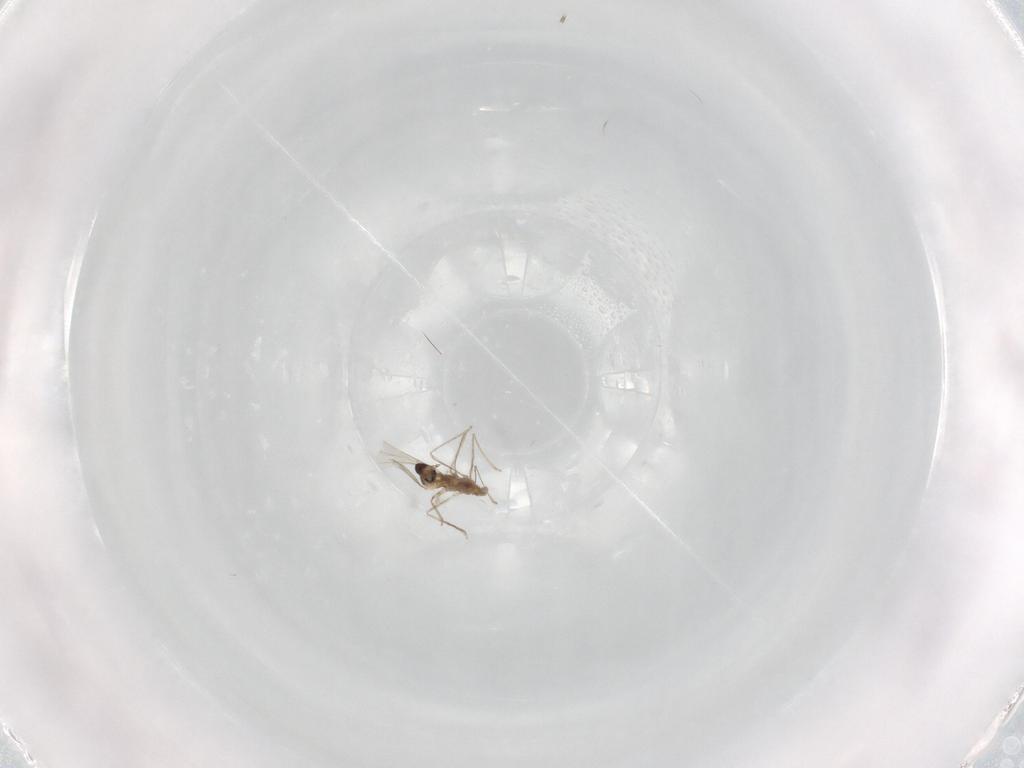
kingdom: Animalia
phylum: Arthropoda
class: Insecta
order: Diptera
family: Cecidomyiidae
